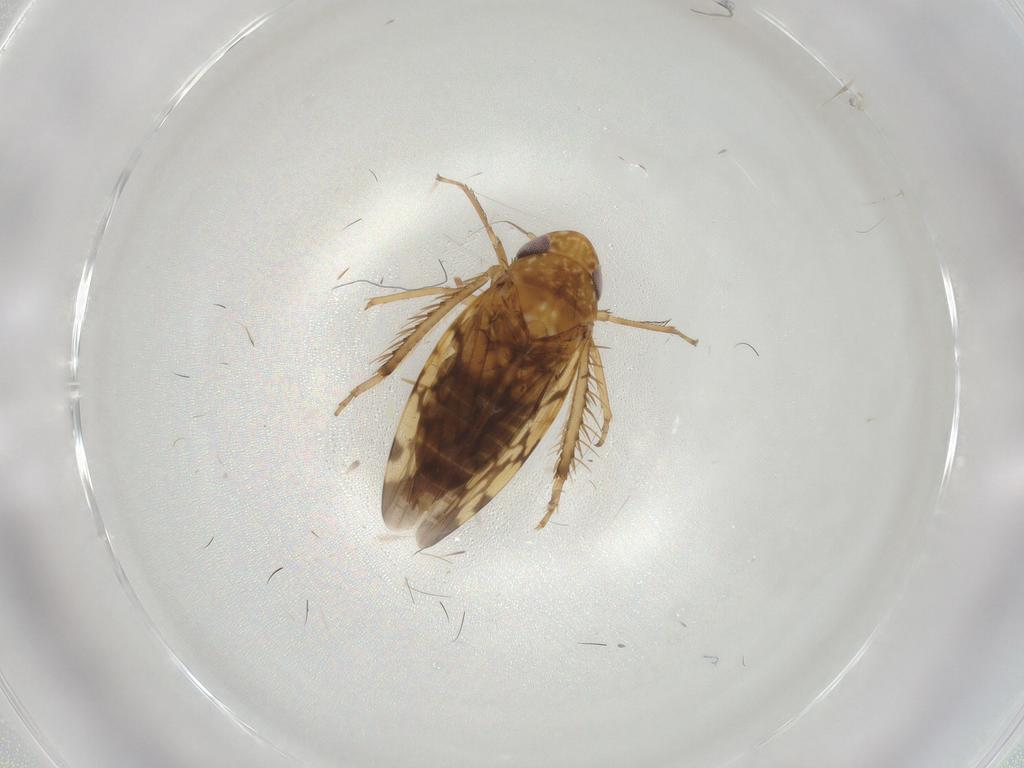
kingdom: Animalia
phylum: Arthropoda
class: Insecta
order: Hemiptera
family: Cicadellidae
